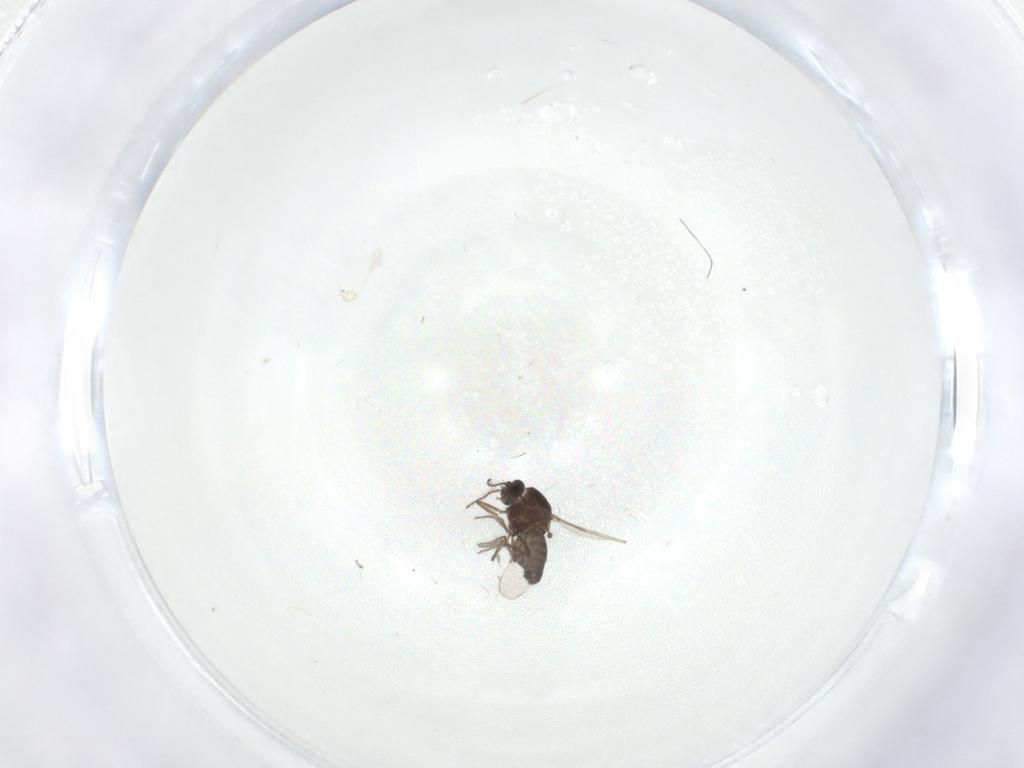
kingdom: Animalia
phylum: Arthropoda
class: Insecta
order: Diptera
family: Ceratopogonidae
